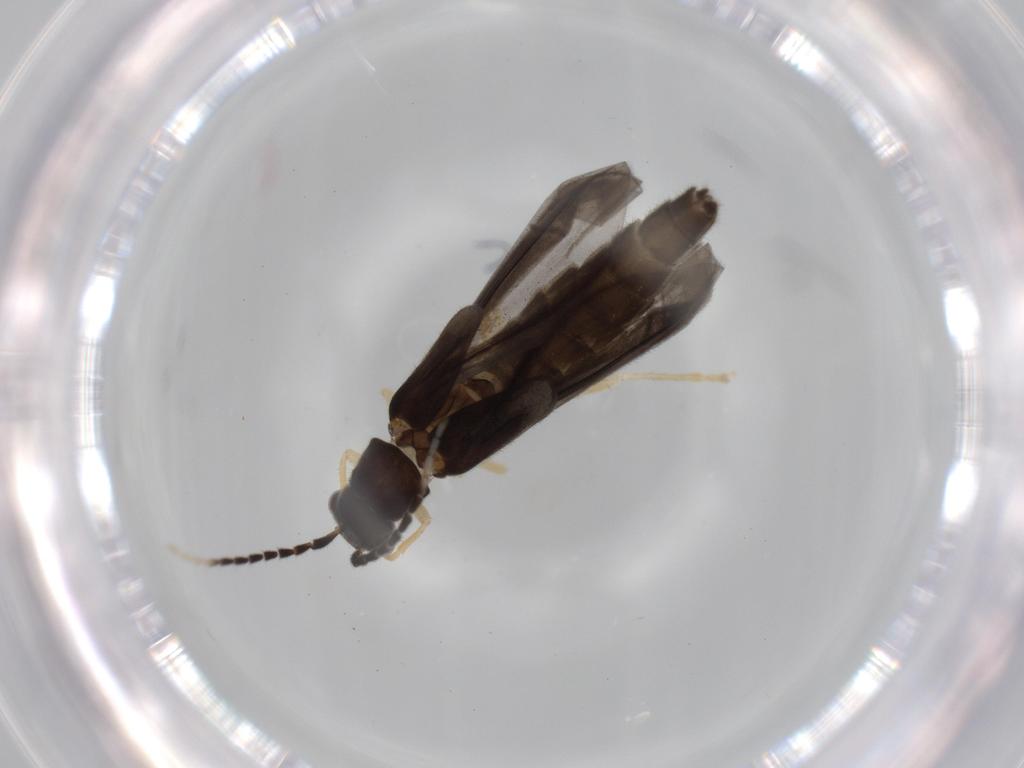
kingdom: Animalia
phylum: Arthropoda
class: Insecta
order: Coleoptera
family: Cantharidae
